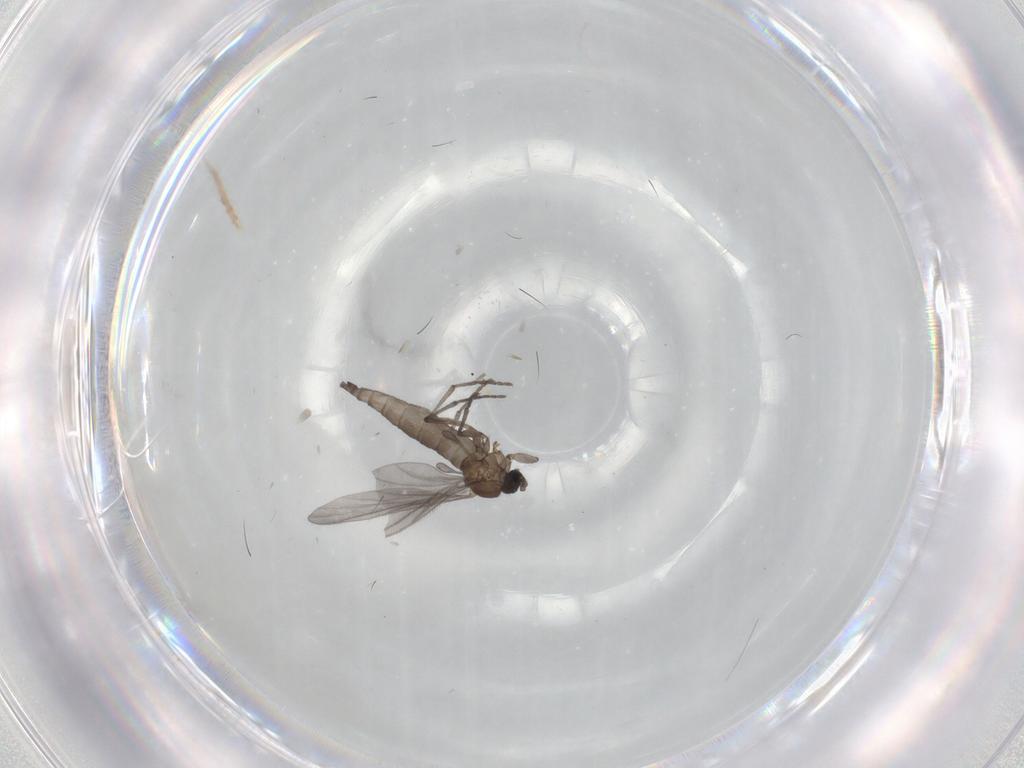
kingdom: Animalia
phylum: Arthropoda
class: Insecta
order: Diptera
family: Sciaridae
